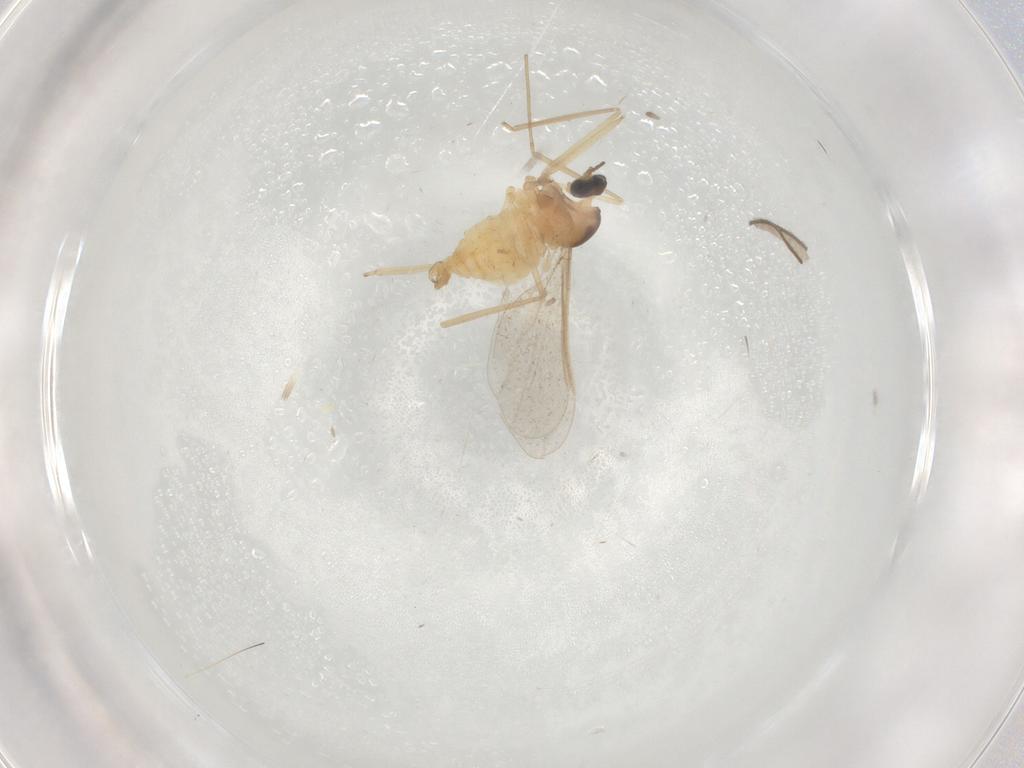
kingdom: Animalia
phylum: Arthropoda
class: Insecta
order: Diptera
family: Cecidomyiidae
